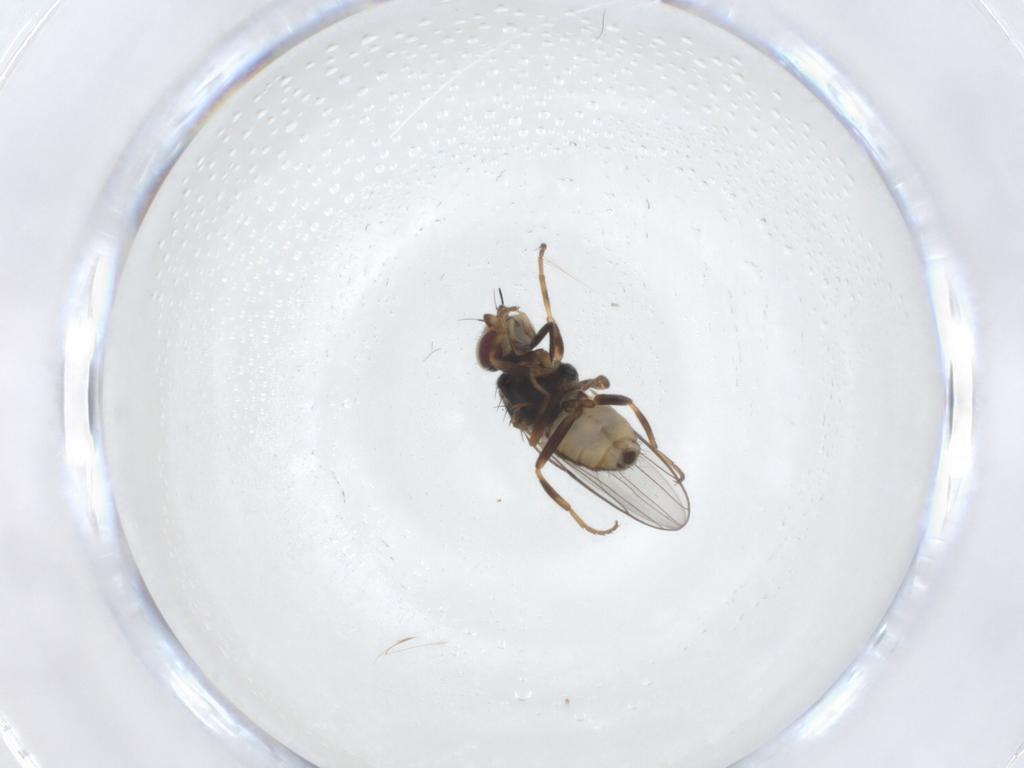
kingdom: Animalia
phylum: Arthropoda
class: Insecta
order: Diptera
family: Chloropidae
